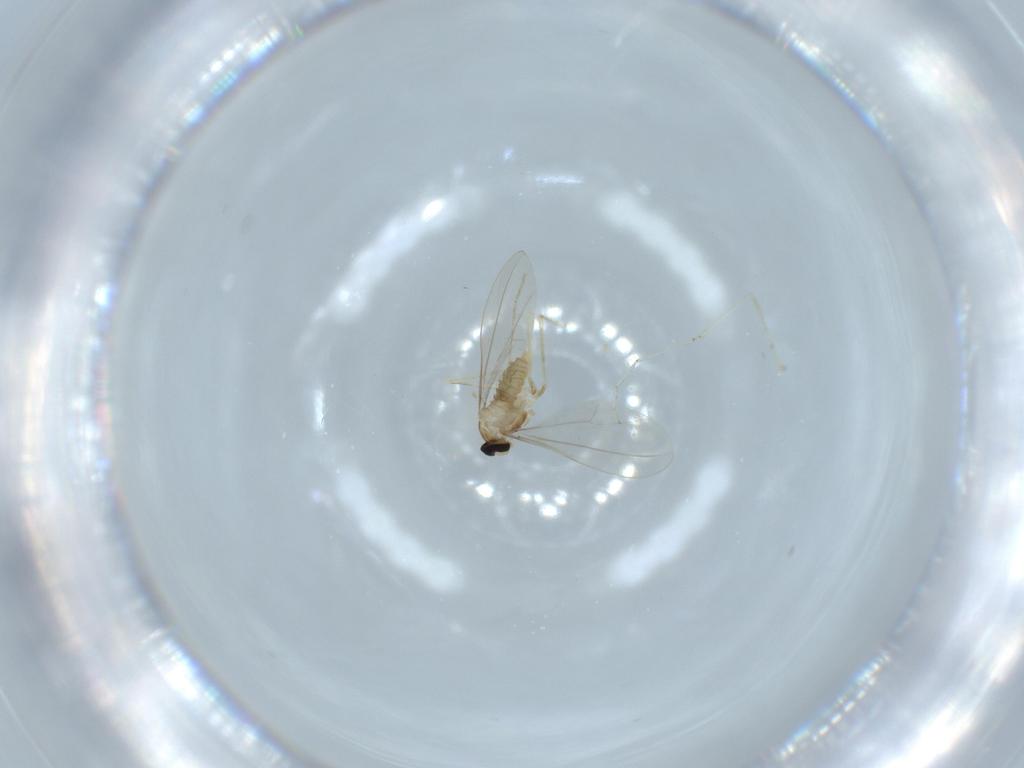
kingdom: Animalia
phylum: Arthropoda
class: Insecta
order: Diptera
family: Cecidomyiidae
